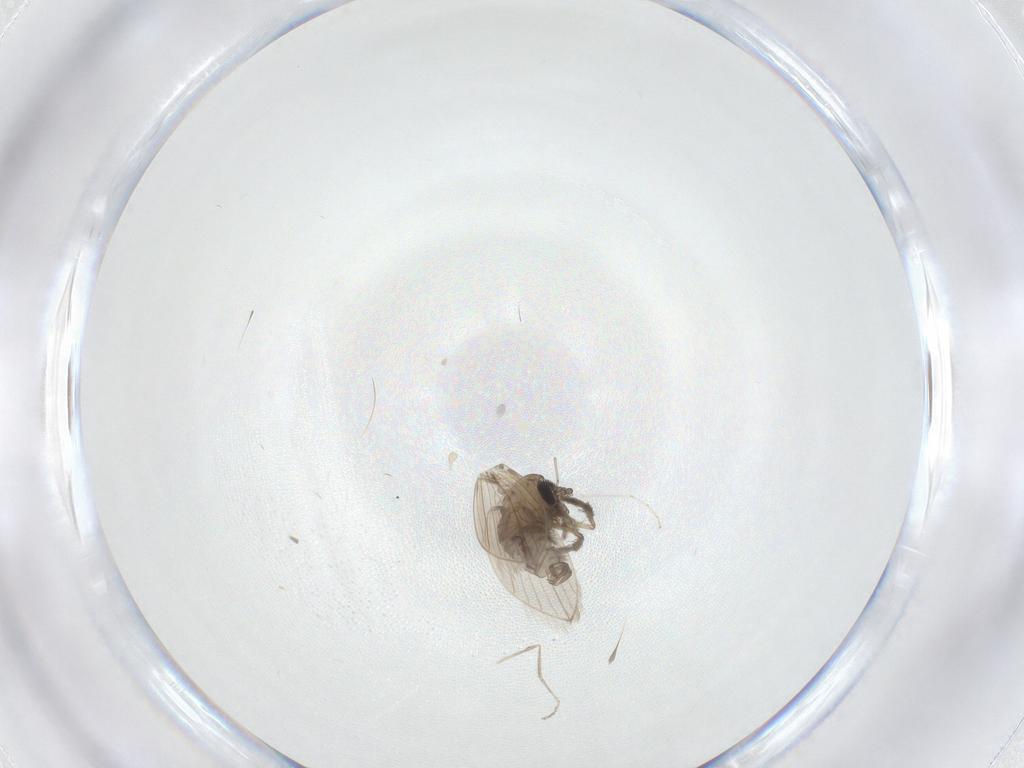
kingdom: Animalia
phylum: Arthropoda
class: Insecta
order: Diptera
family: Psychodidae
